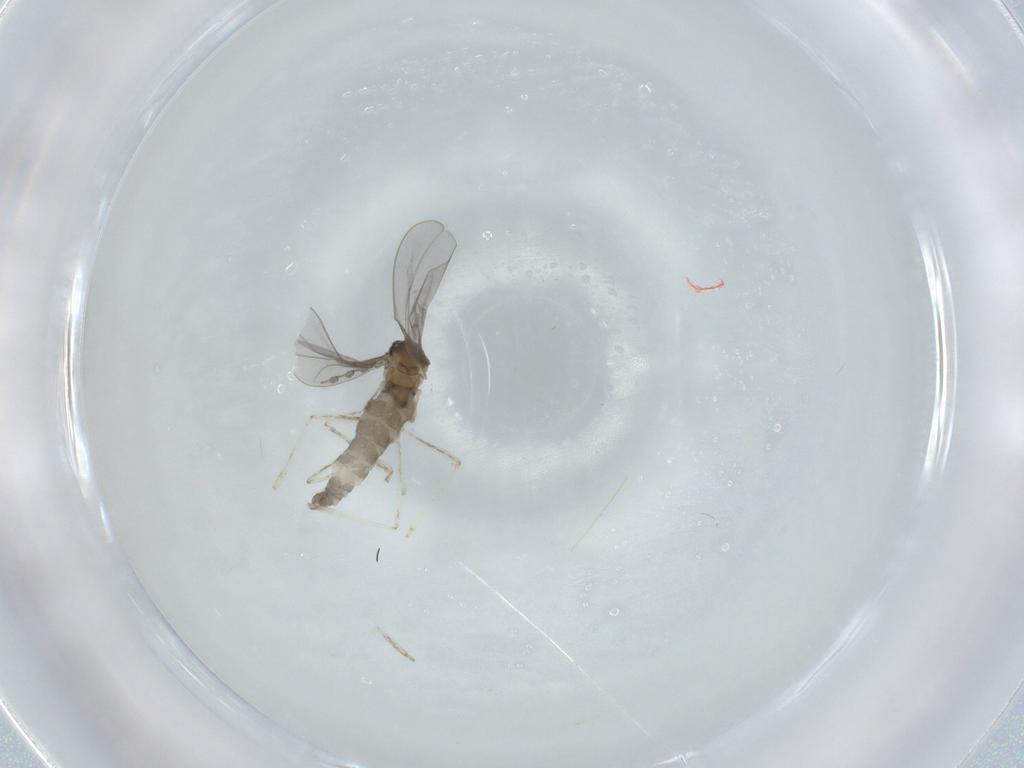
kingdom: Animalia
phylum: Arthropoda
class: Insecta
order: Diptera
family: Cecidomyiidae
